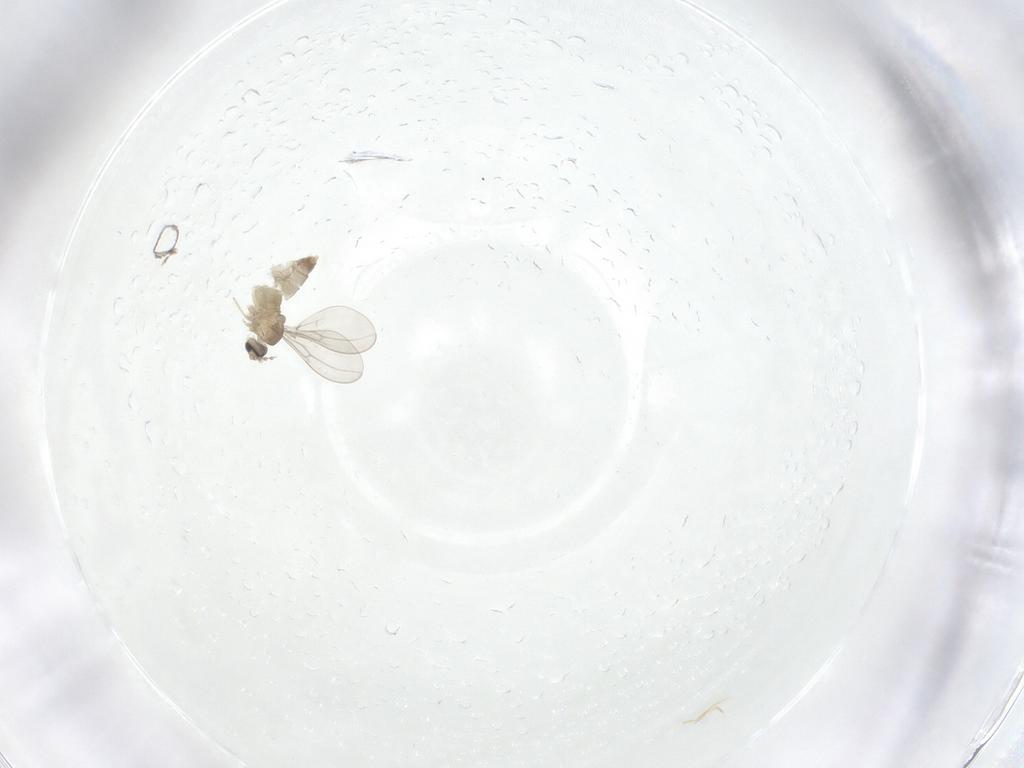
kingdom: Animalia
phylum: Arthropoda
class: Insecta
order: Diptera
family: Cecidomyiidae
